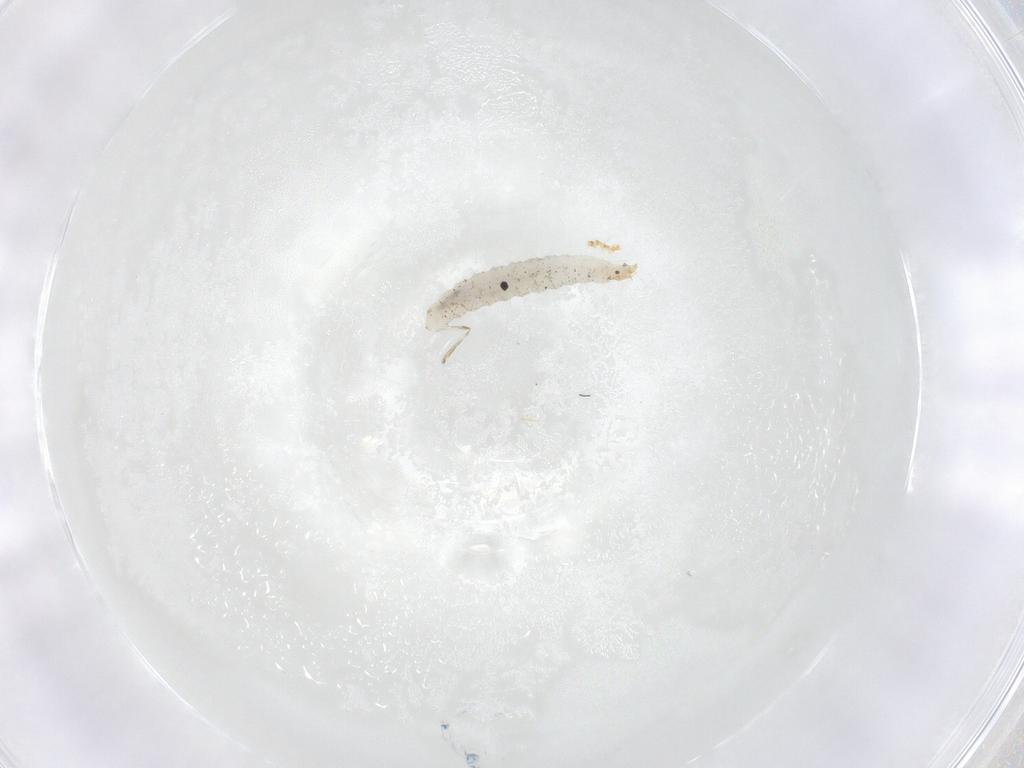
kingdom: Animalia
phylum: Arthropoda
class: Insecta
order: Diptera
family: Stratiomyidae
